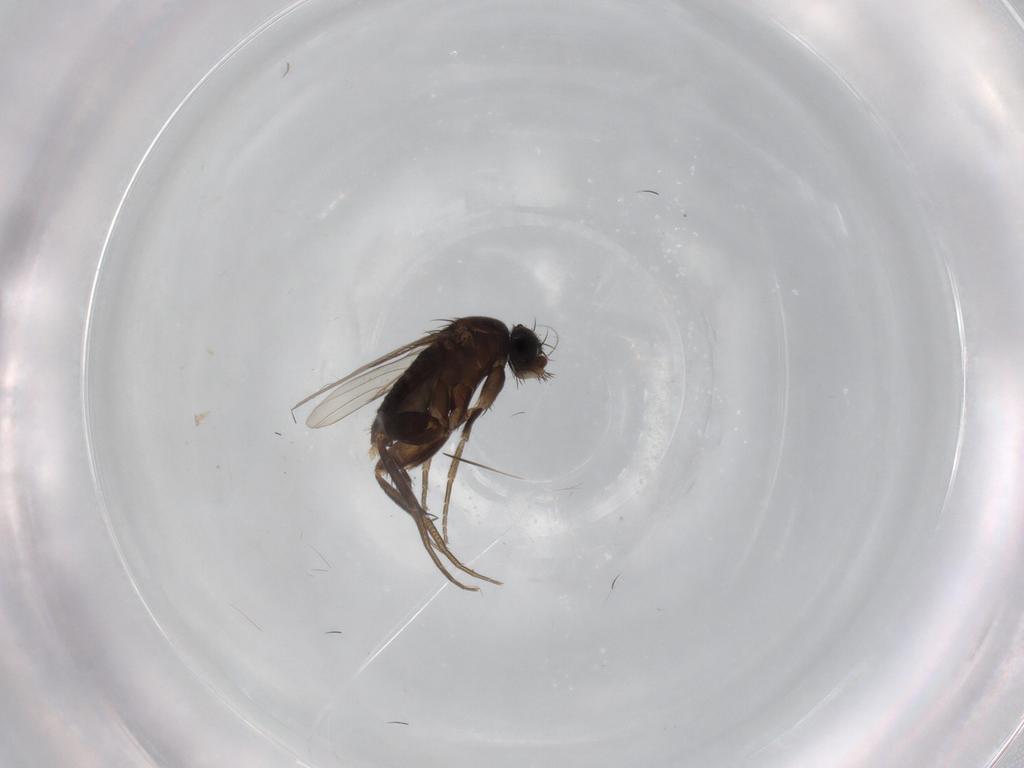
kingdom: Animalia
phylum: Arthropoda
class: Insecta
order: Diptera
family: Phoridae
